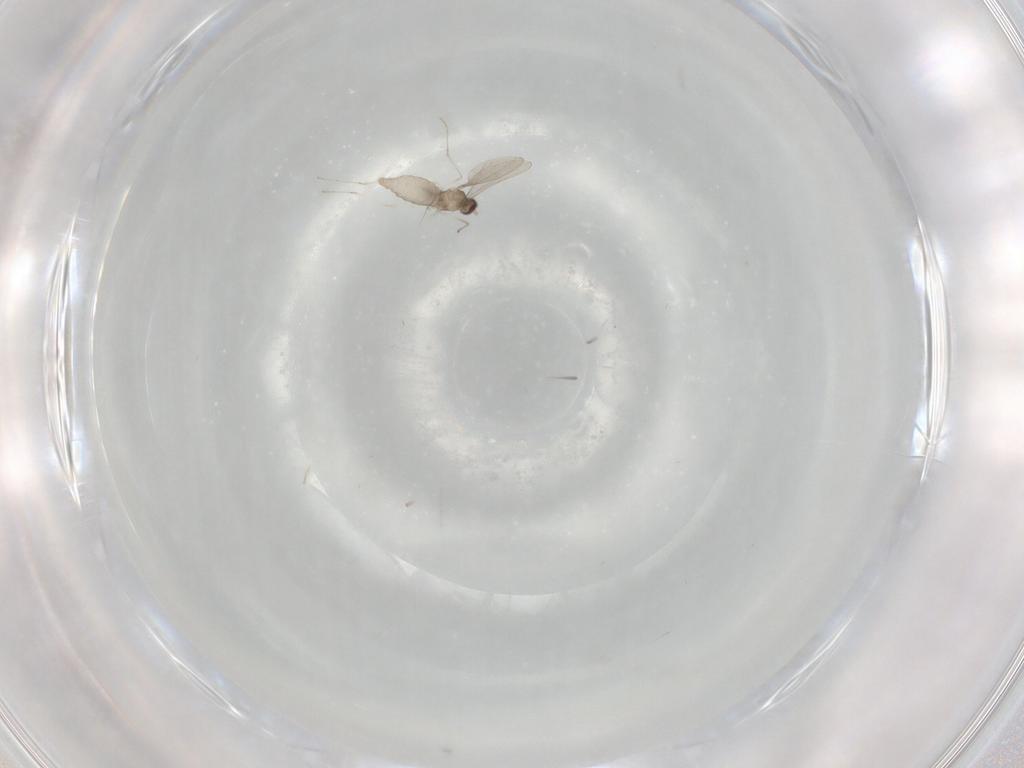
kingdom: Animalia
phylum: Arthropoda
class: Insecta
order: Diptera
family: Cecidomyiidae
